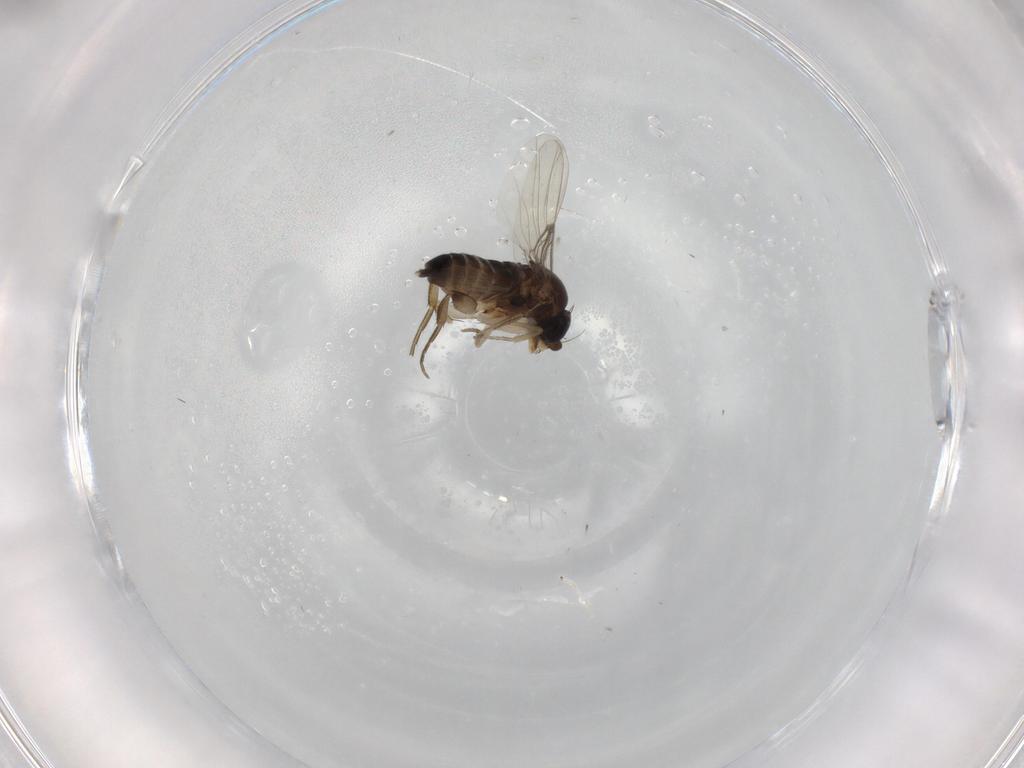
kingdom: Animalia
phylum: Arthropoda
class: Insecta
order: Diptera
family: Phoridae
